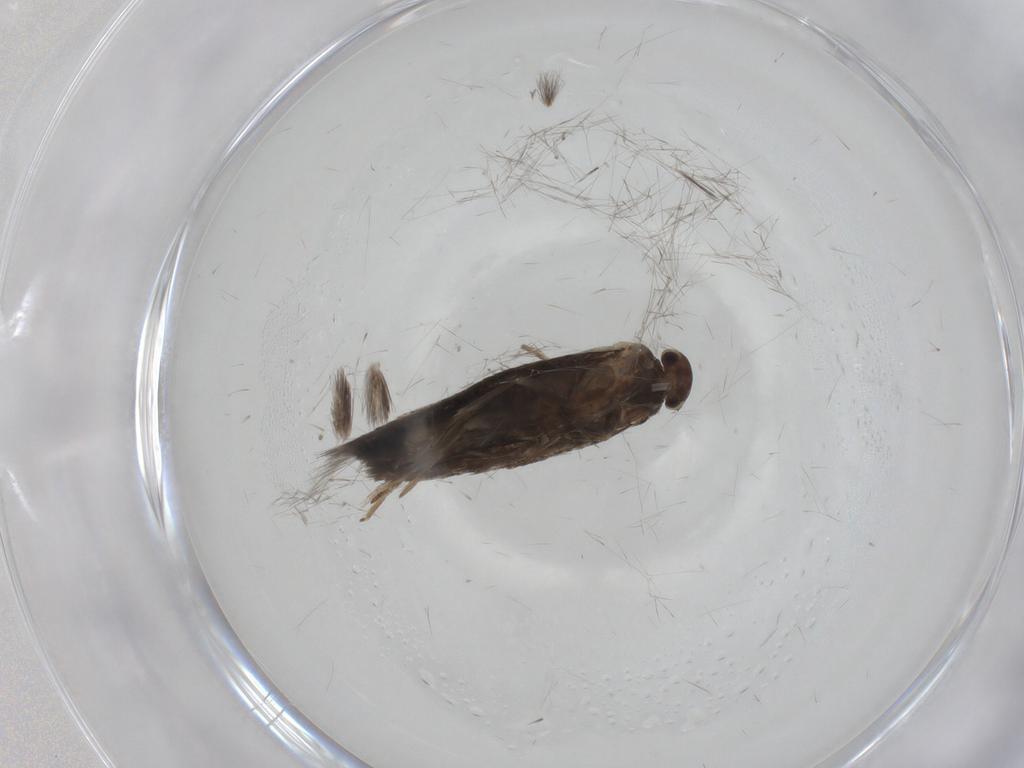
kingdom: Animalia
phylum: Arthropoda
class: Insecta
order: Lepidoptera
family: Elachistidae
